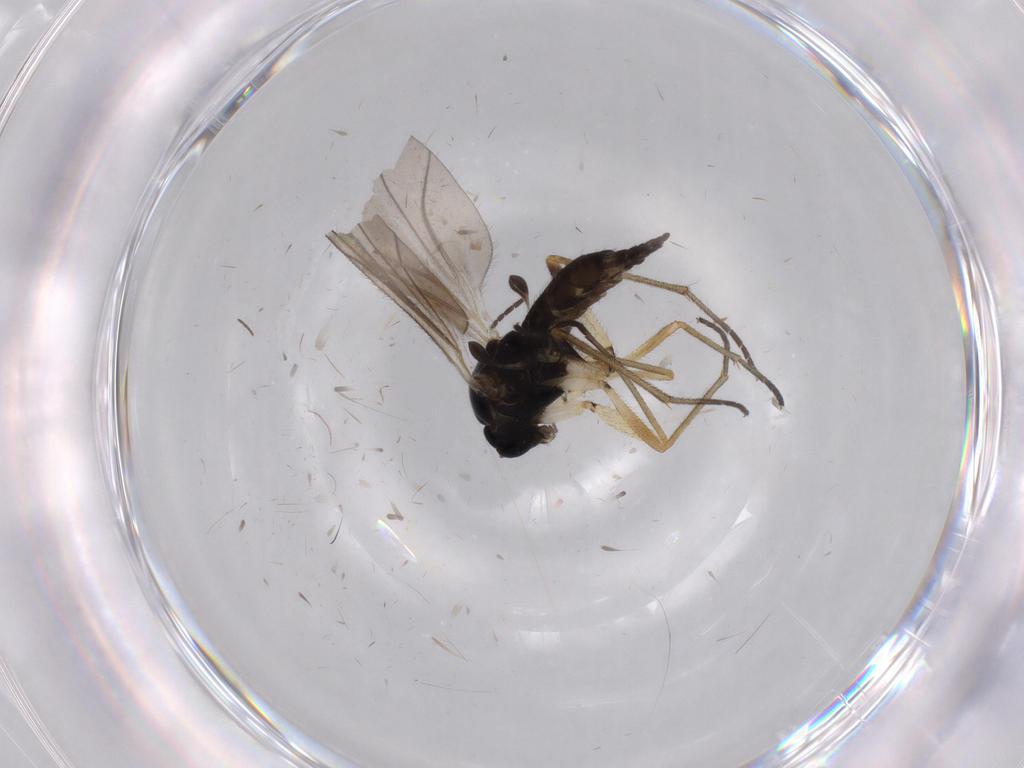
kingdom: Animalia
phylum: Arthropoda
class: Insecta
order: Diptera
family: Sciaridae
